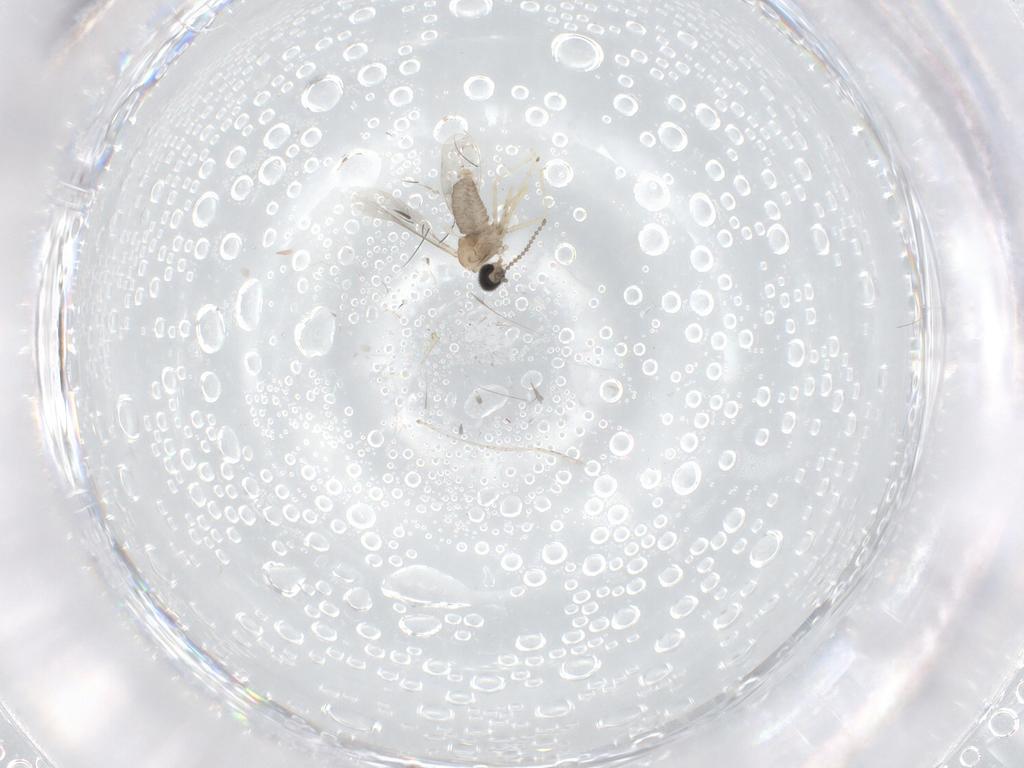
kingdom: Animalia
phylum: Arthropoda
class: Insecta
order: Diptera
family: Cecidomyiidae
